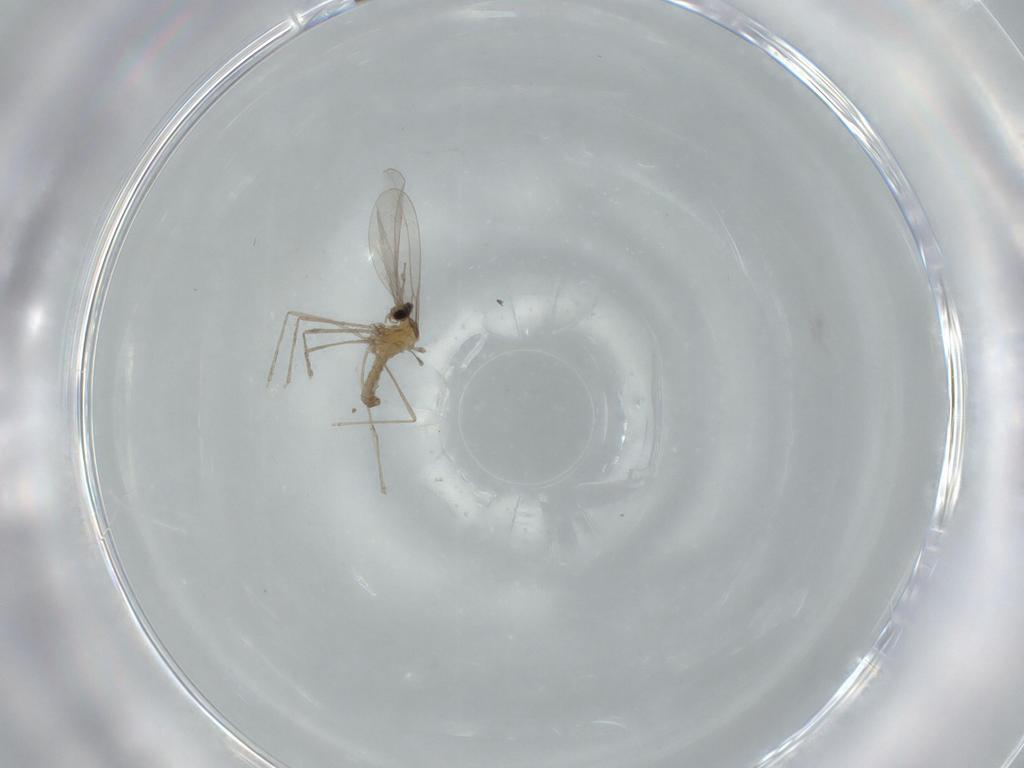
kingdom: Animalia
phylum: Arthropoda
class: Insecta
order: Diptera
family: Cecidomyiidae
